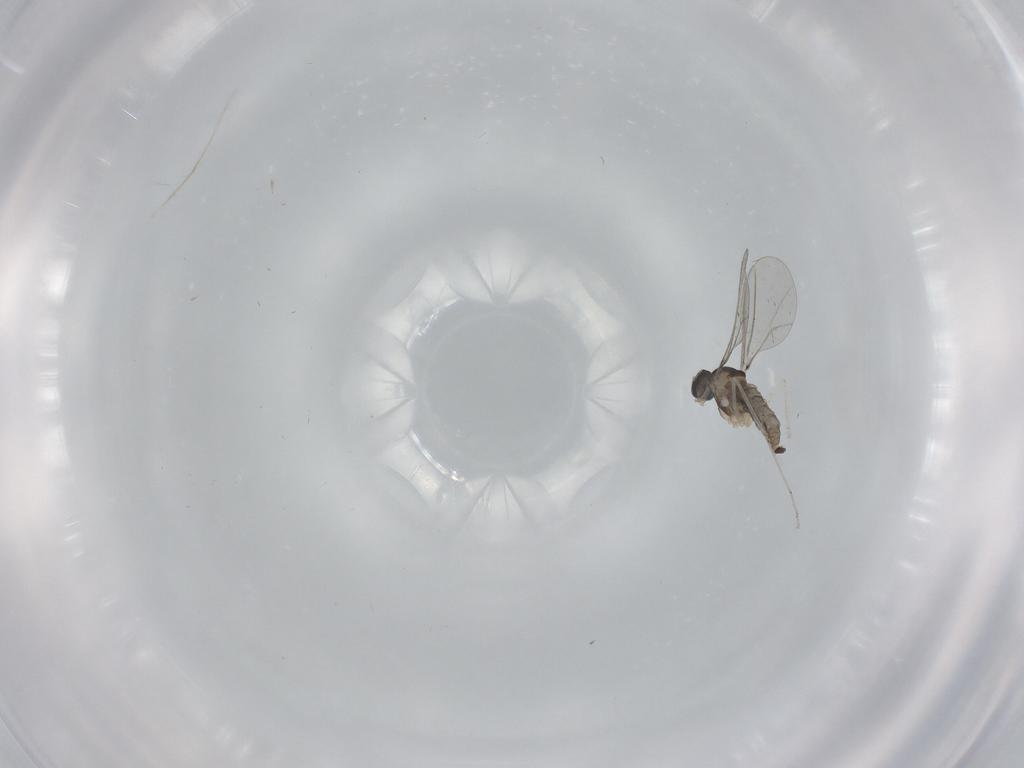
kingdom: Animalia
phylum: Arthropoda
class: Insecta
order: Diptera
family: Cecidomyiidae
